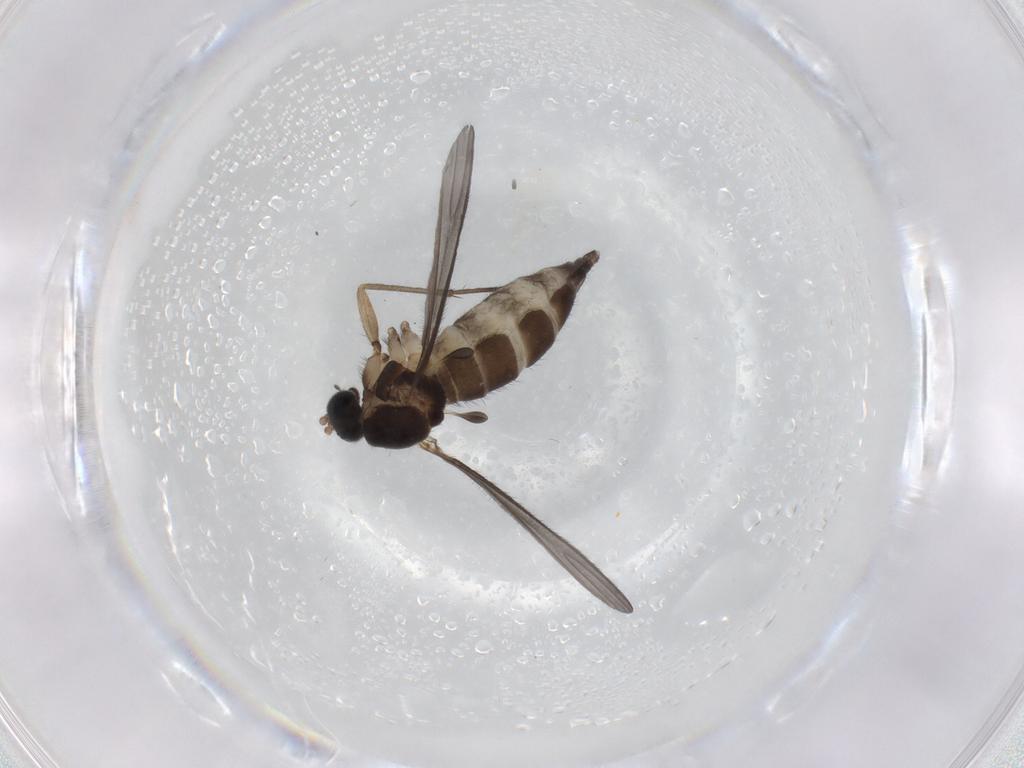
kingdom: Animalia
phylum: Arthropoda
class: Insecta
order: Diptera
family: Sciaridae
